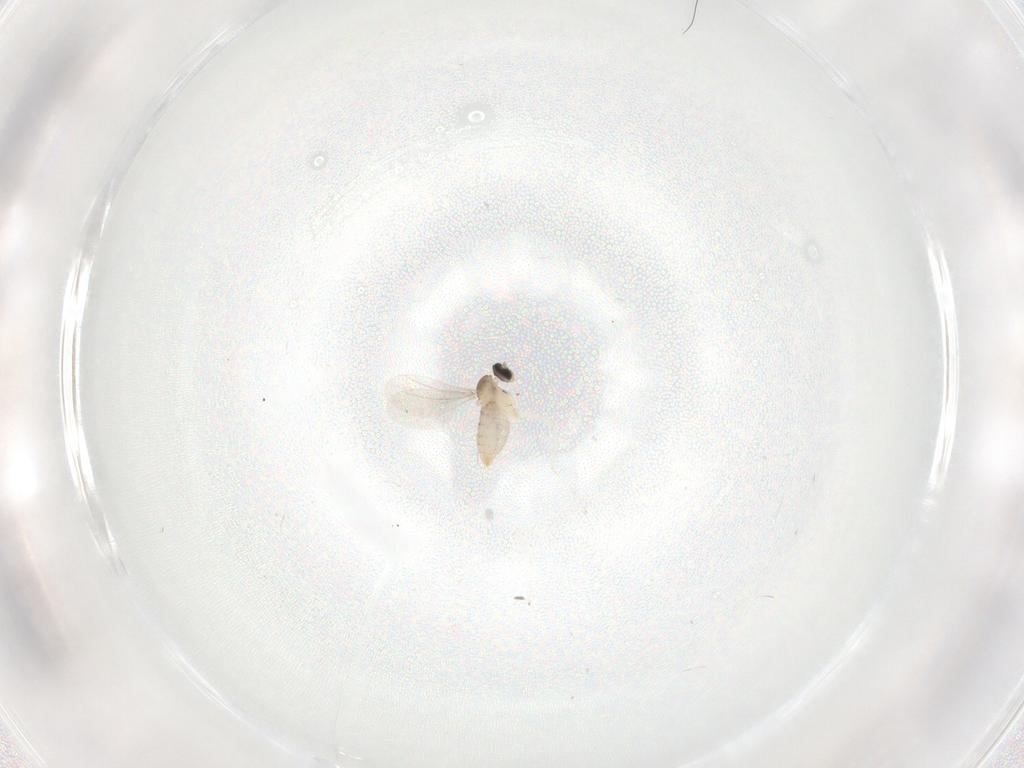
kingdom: Animalia
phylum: Arthropoda
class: Insecta
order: Diptera
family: Cecidomyiidae
